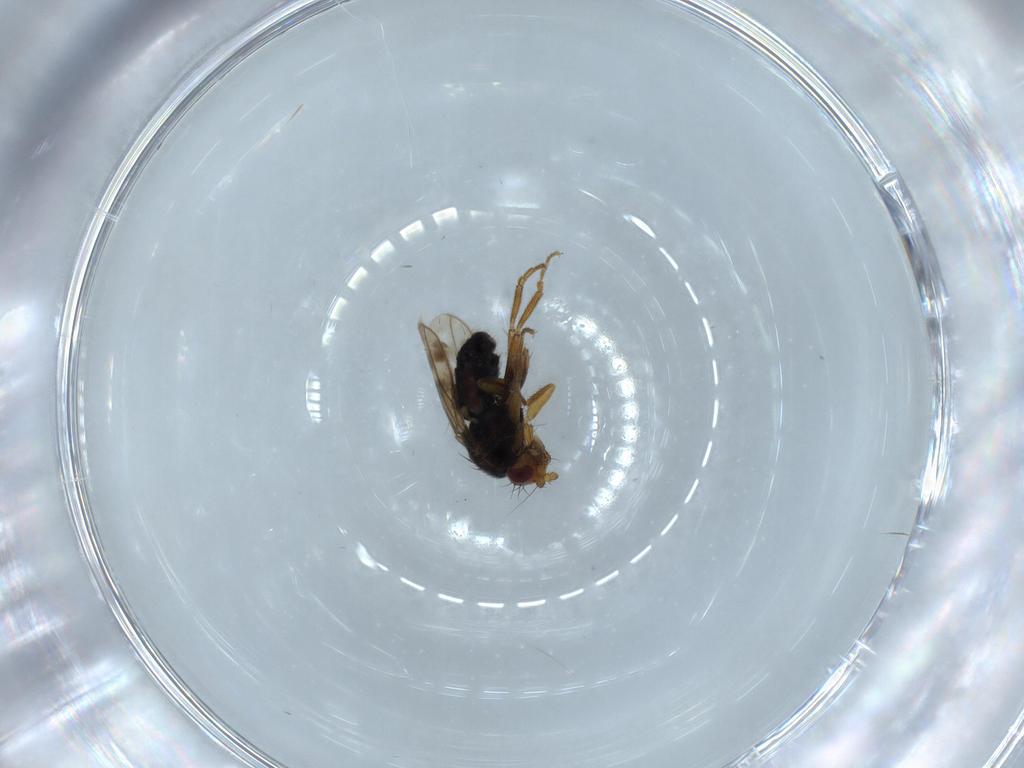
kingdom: Animalia
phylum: Arthropoda
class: Insecta
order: Diptera
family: Sphaeroceridae
